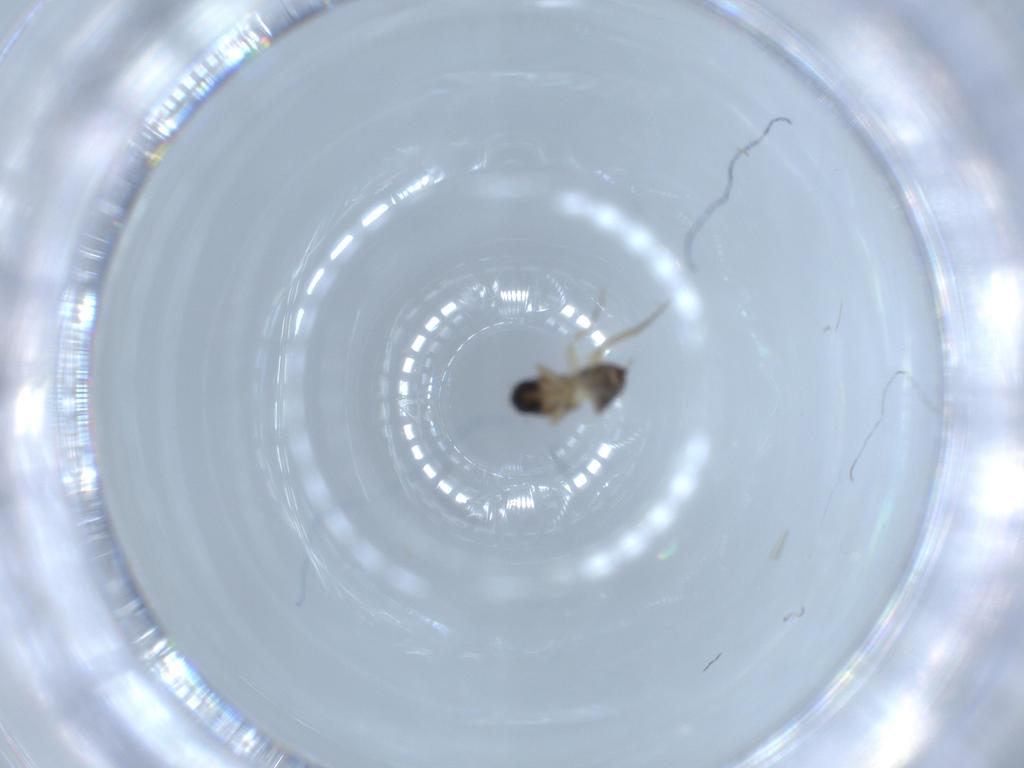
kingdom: Animalia
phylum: Arthropoda
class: Insecta
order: Diptera
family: Phoridae
